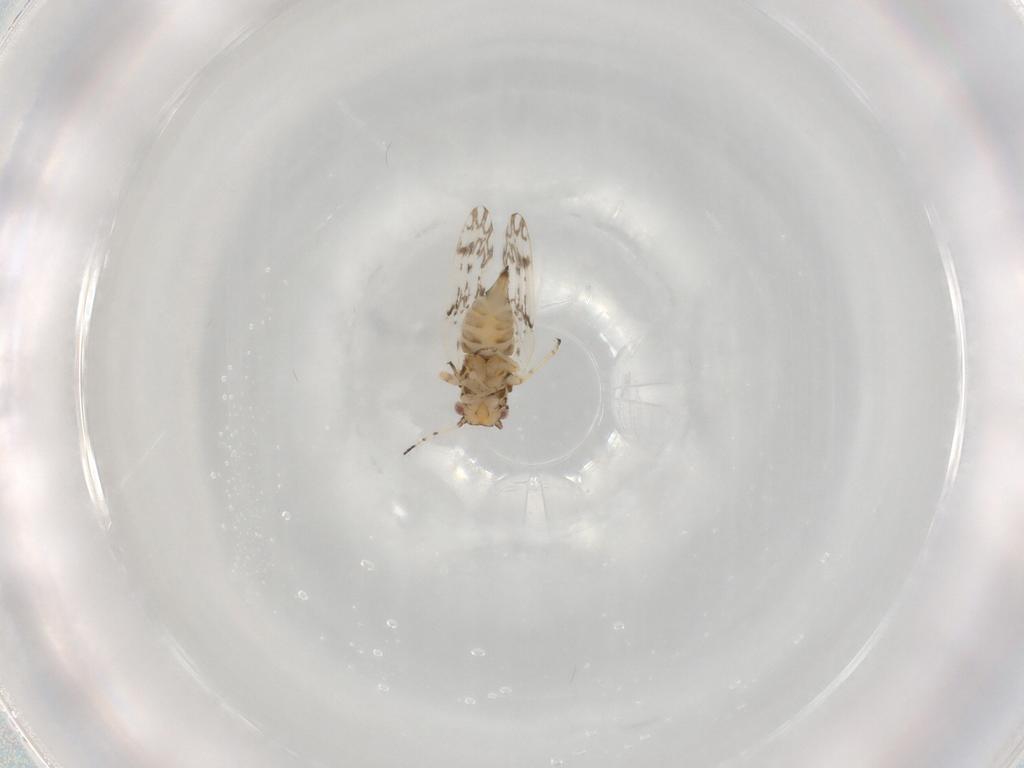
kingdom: Animalia
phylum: Arthropoda
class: Insecta
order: Hemiptera
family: Aleyrodidae
